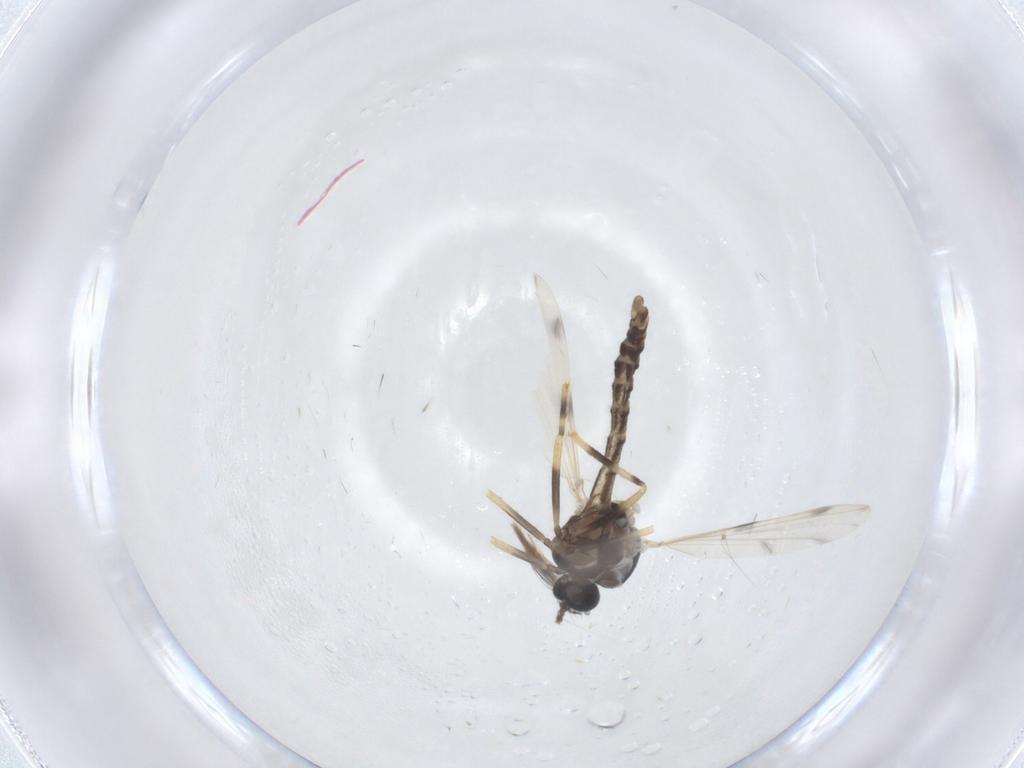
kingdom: Animalia
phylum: Arthropoda
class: Insecta
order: Diptera
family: Ceratopogonidae
